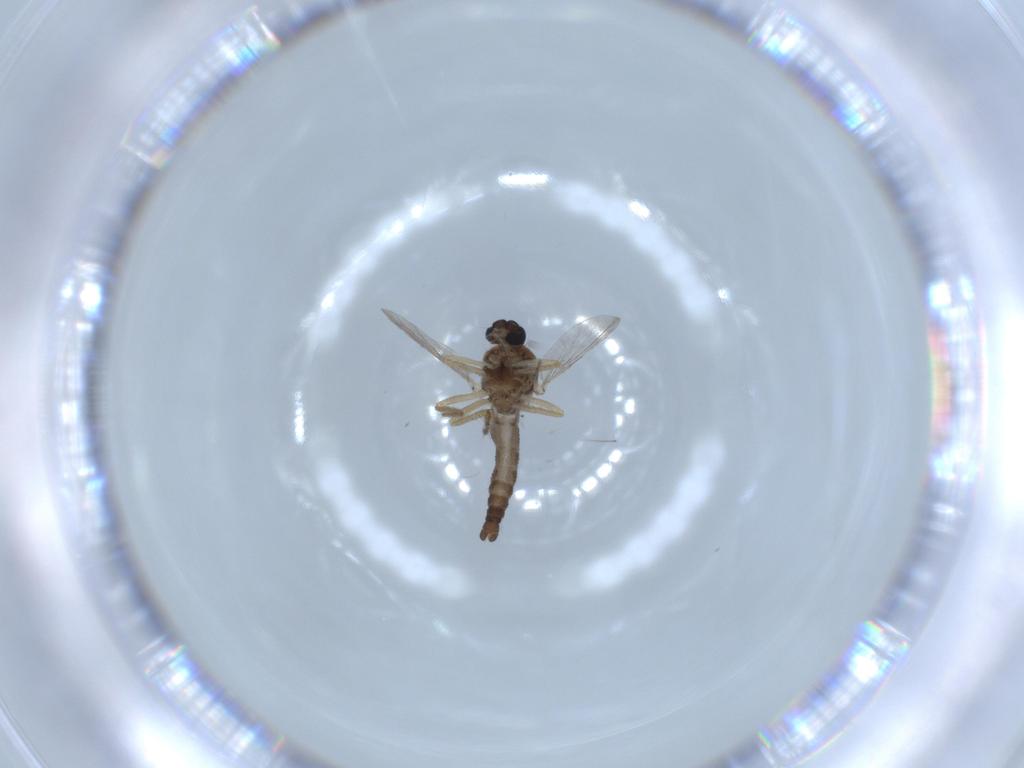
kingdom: Animalia
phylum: Arthropoda
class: Insecta
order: Diptera
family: Ceratopogonidae
